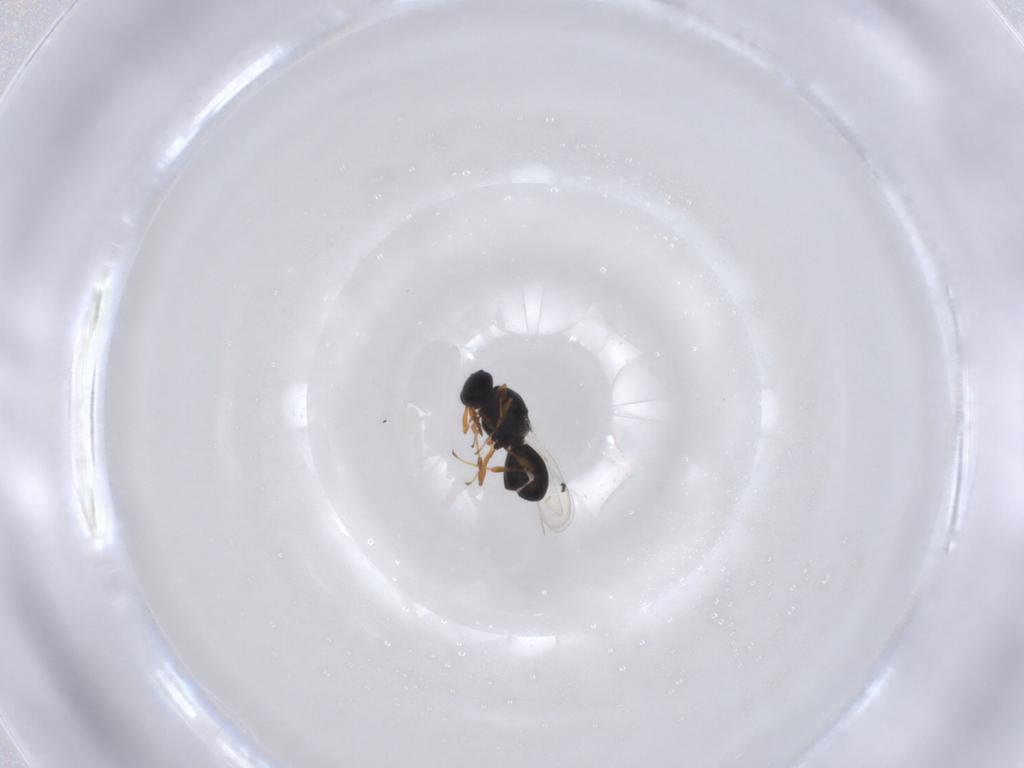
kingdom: Animalia
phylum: Arthropoda
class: Insecta
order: Hymenoptera
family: Platygastridae
